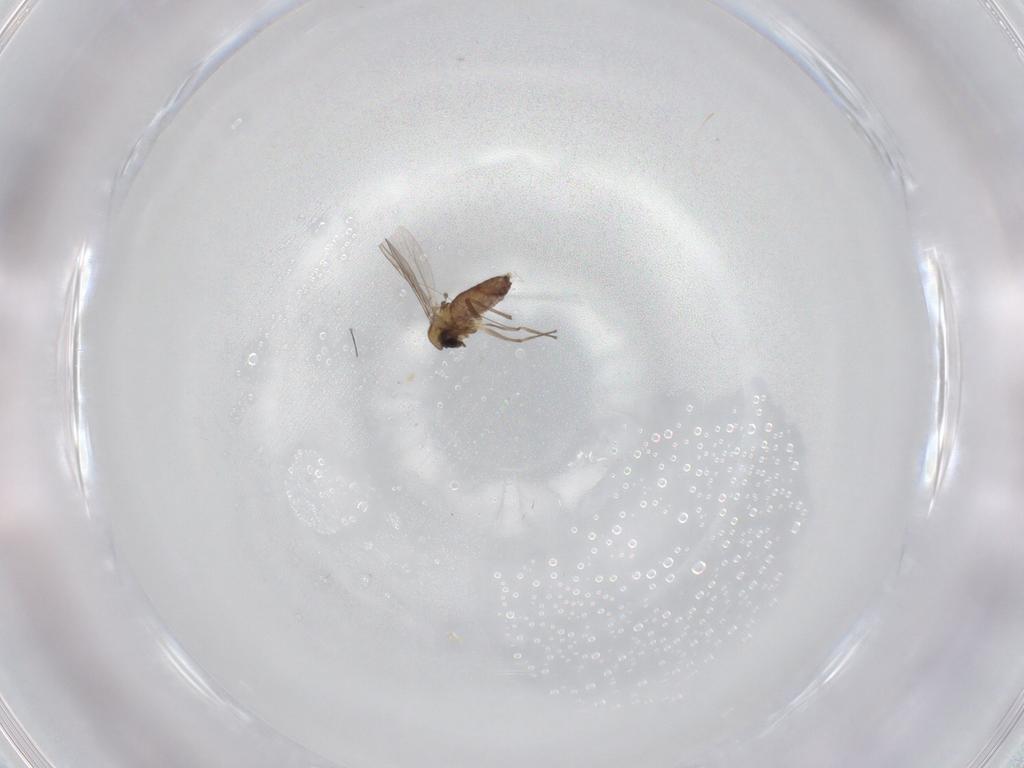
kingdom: Animalia
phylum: Arthropoda
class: Insecta
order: Diptera
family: Chironomidae
